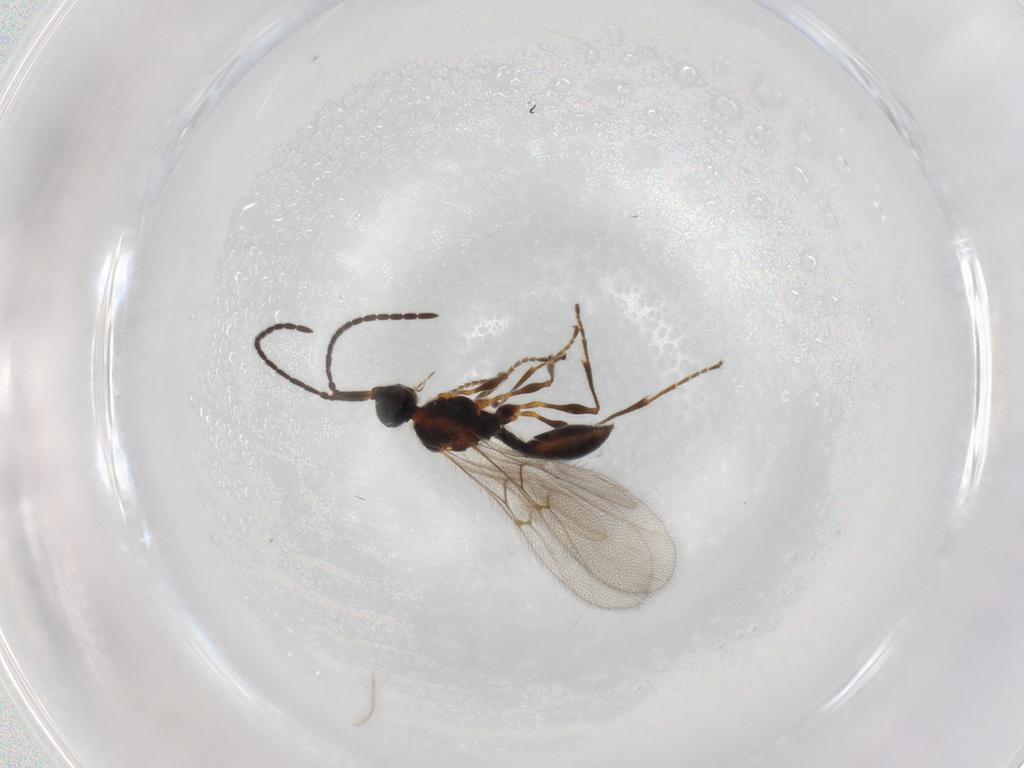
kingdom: Animalia
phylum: Arthropoda
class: Insecta
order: Hymenoptera
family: Diapriidae
